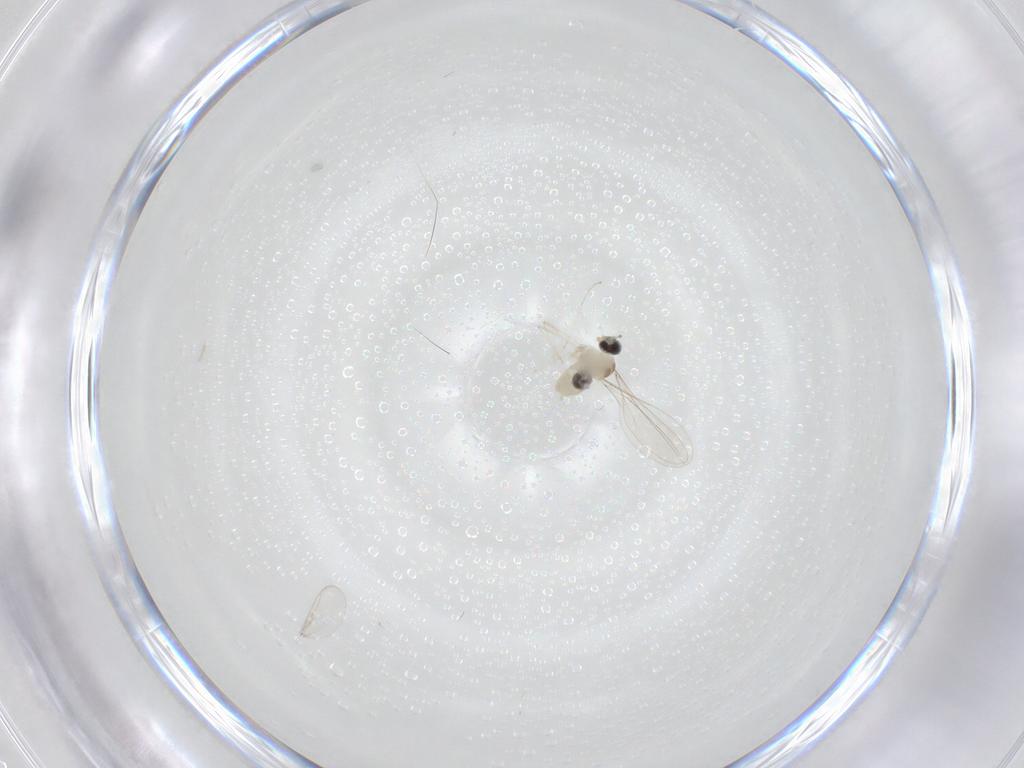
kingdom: Animalia
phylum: Arthropoda
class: Insecta
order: Diptera
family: Cecidomyiidae
